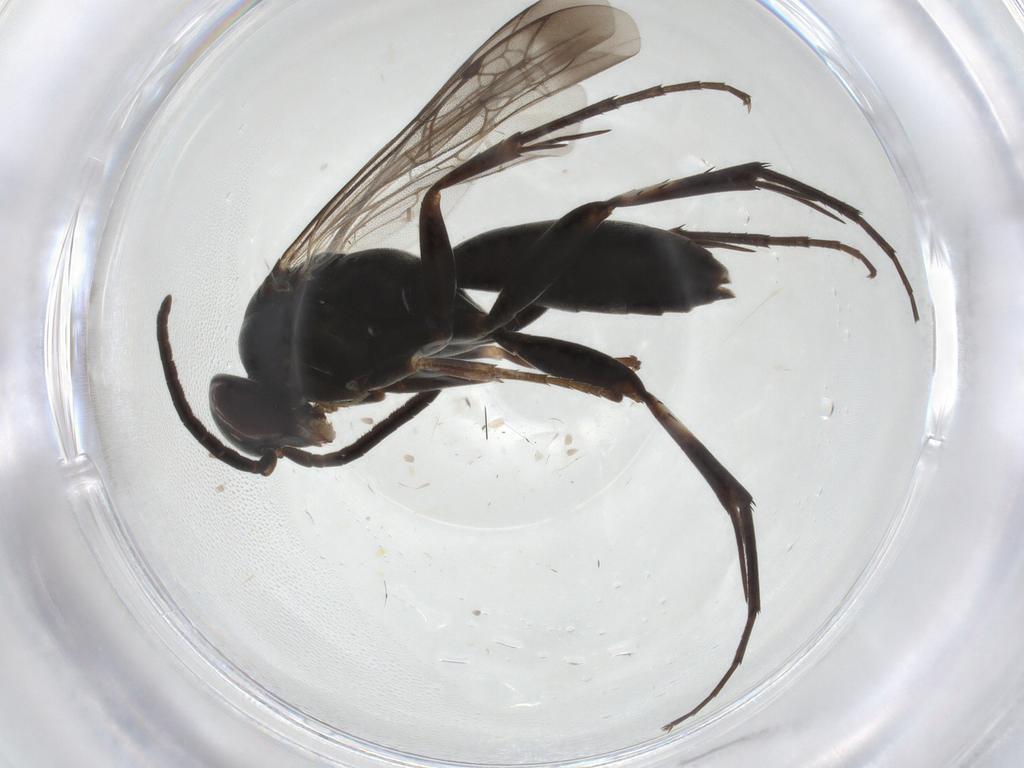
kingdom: Animalia
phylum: Arthropoda
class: Insecta
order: Hymenoptera
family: Pompilidae
